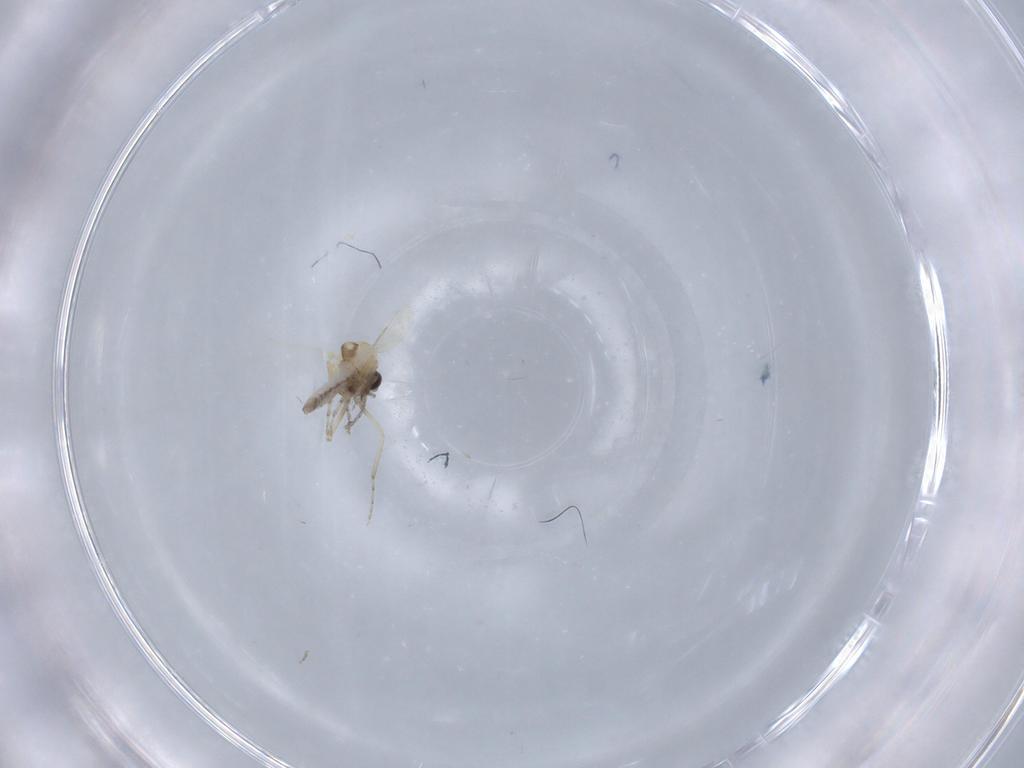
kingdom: Animalia
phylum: Arthropoda
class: Insecta
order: Diptera
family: Ceratopogonidae
